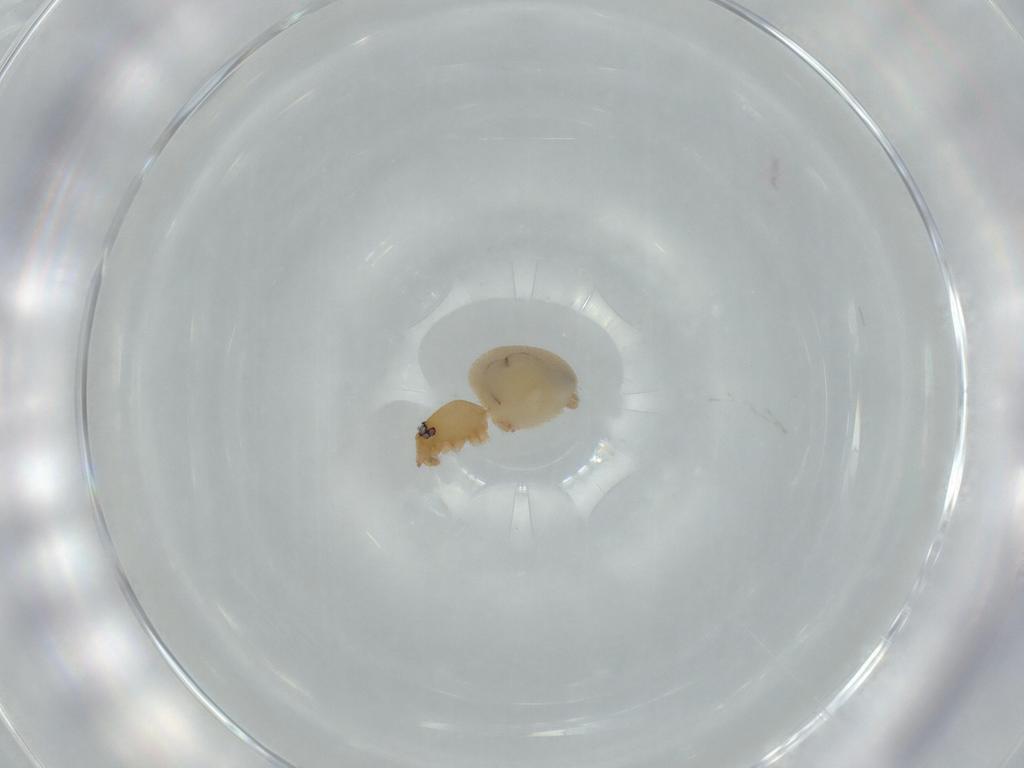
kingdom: Animalia
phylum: Arthropoda
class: Arachnida
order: Araneae
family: Oonopidae
